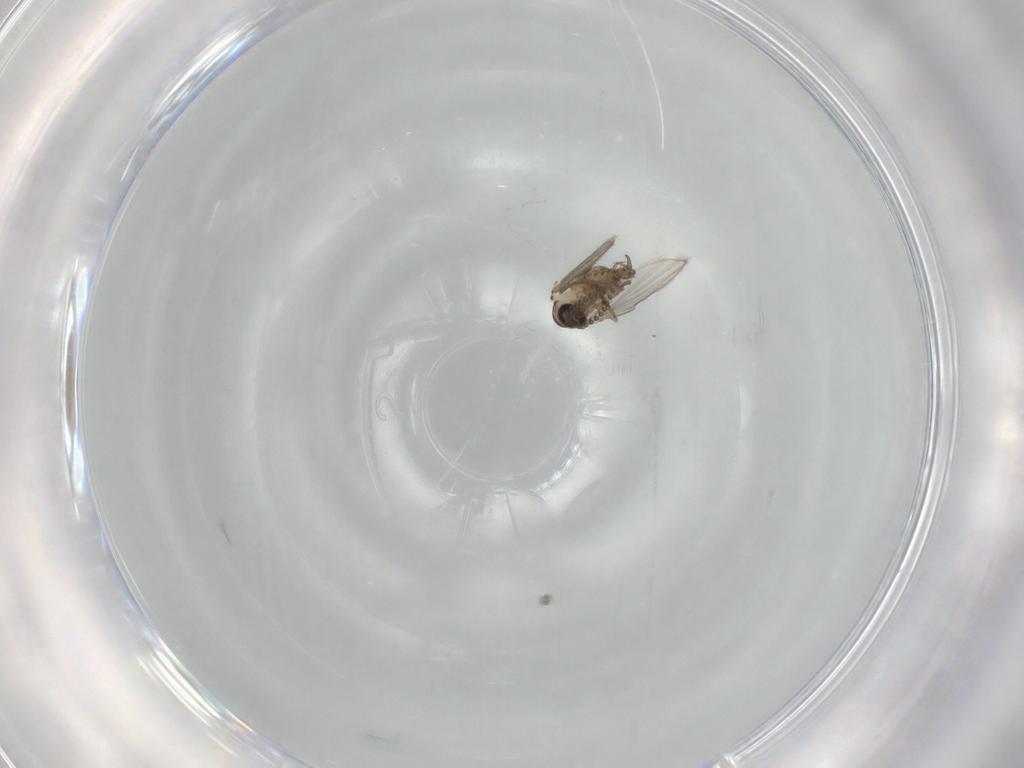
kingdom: Animalia
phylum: Arthropoda
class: Insecta
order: Diptera
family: Psychodidae
